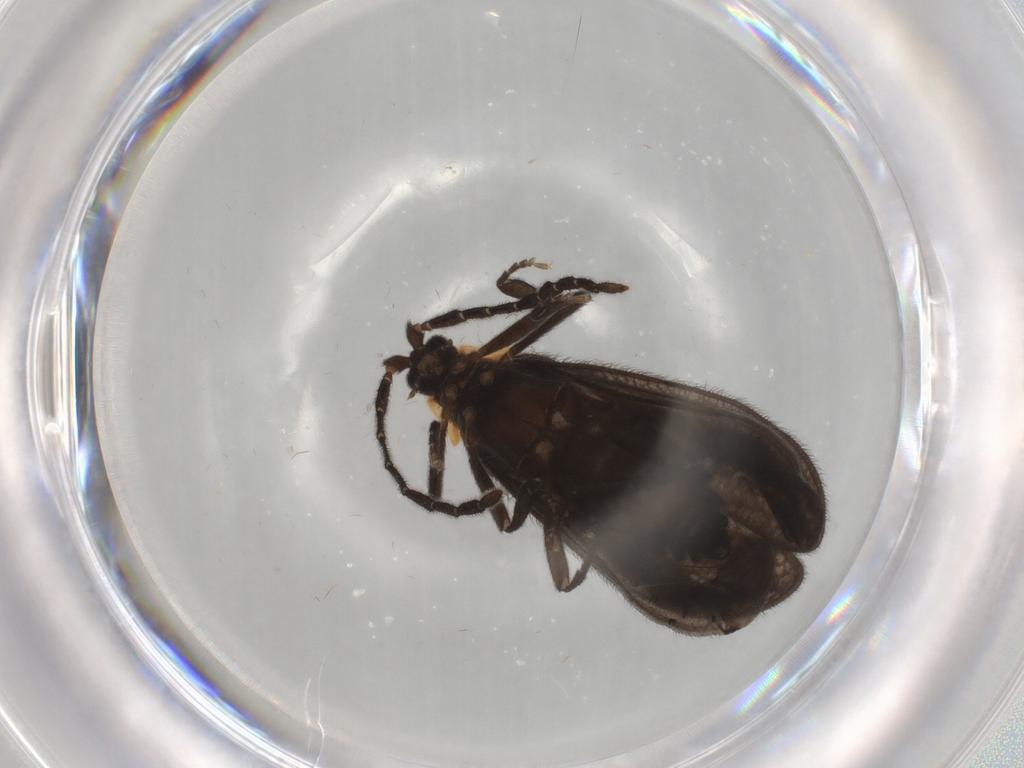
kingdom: Animalia
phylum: Arthropoda
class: Insecta
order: Coleoptera
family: Lycidae
